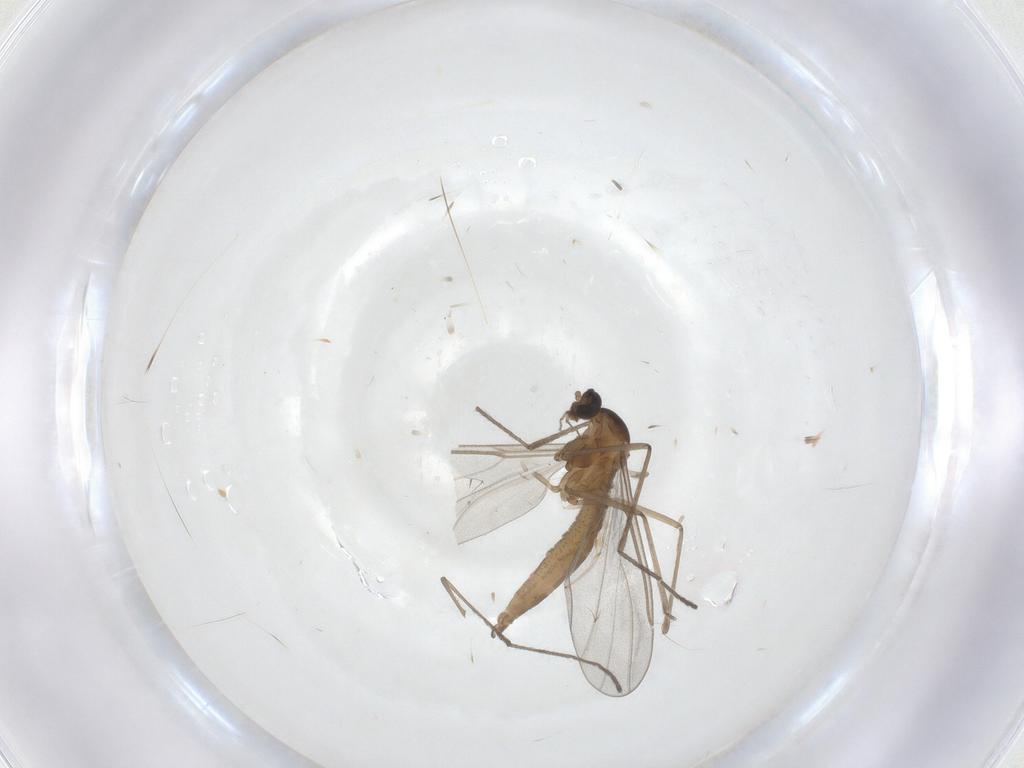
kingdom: Animalia
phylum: Arthropoda
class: Insecta
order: Diptera
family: Cecidomyiidae
